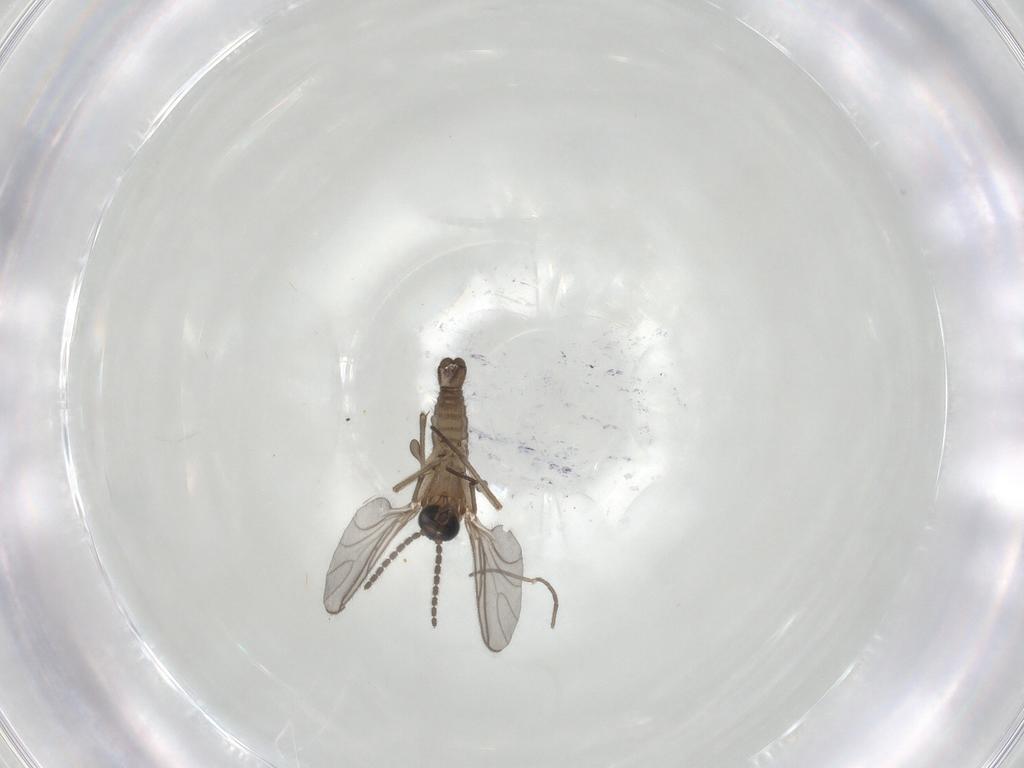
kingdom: Animalia
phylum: Arthropoda
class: Insecta
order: Diptera
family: Sciaridae
